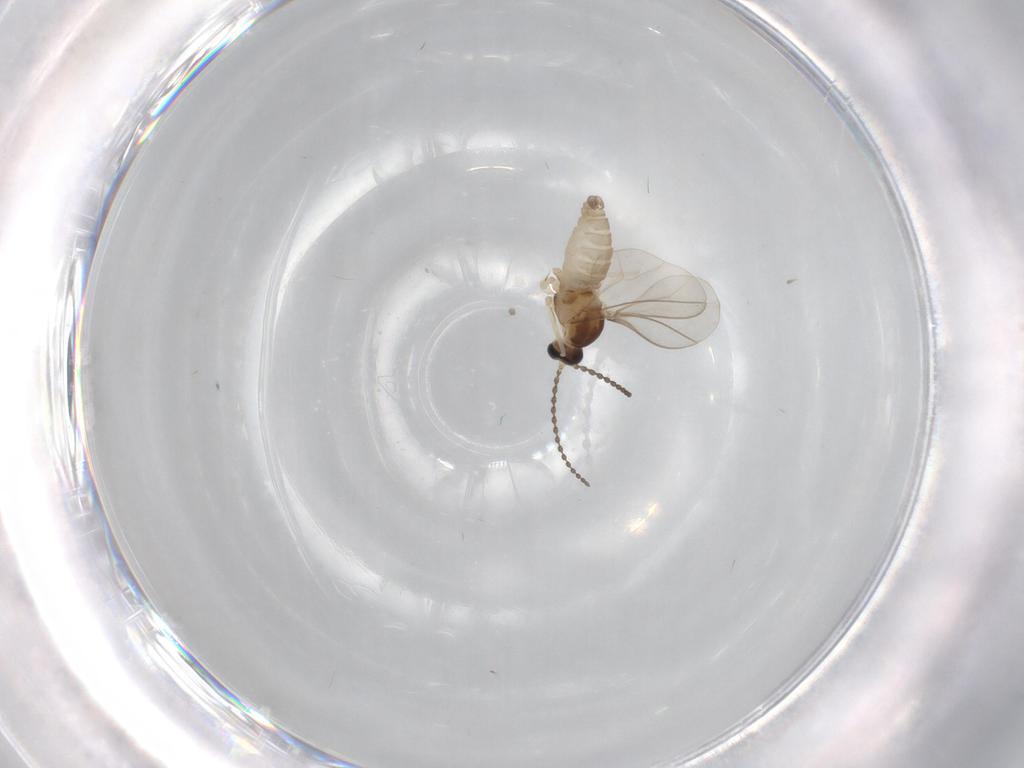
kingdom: Animalia
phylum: Arthropoda
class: Insecta
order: Diptera
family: Cecidomyiidae
